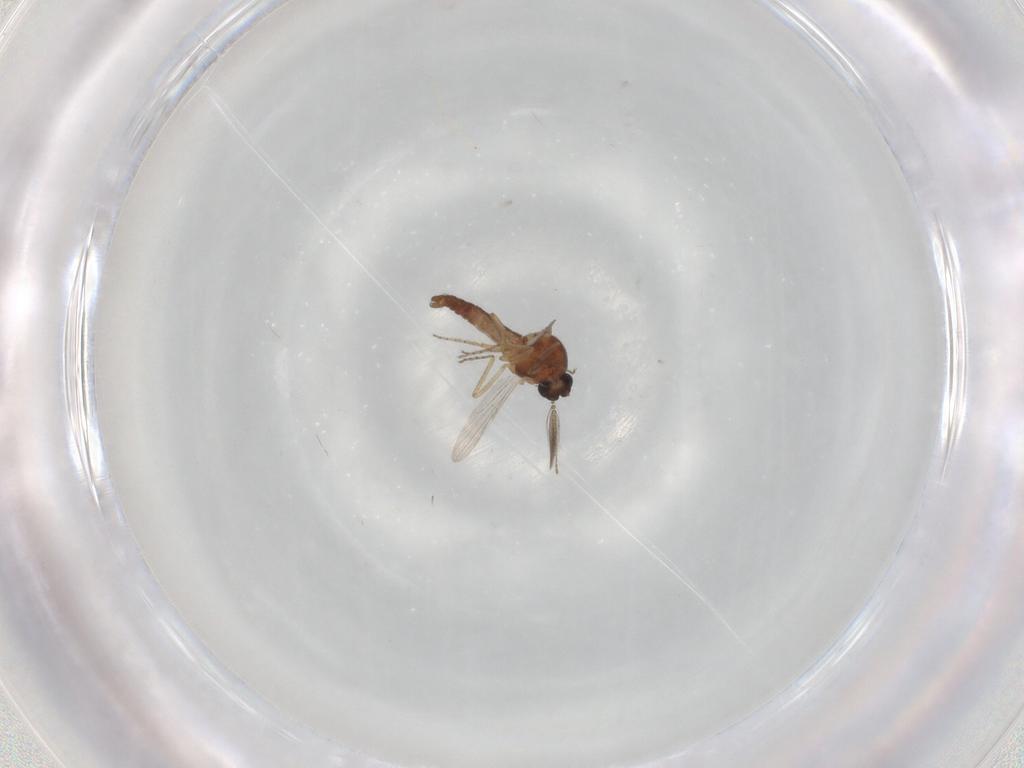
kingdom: Animalia
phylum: Arthropoda
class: Insecta
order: Diptera
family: Ceratopogonidae
